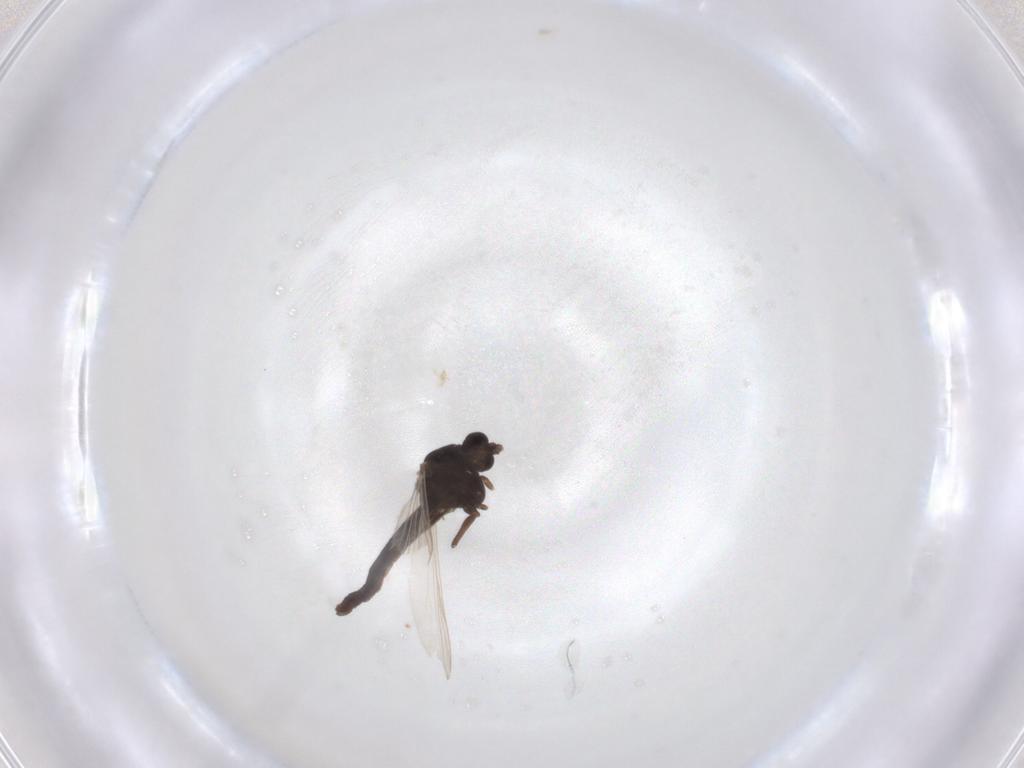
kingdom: Animalia
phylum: Arthropoda
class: Insecta
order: Diptera
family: Chironomidae
